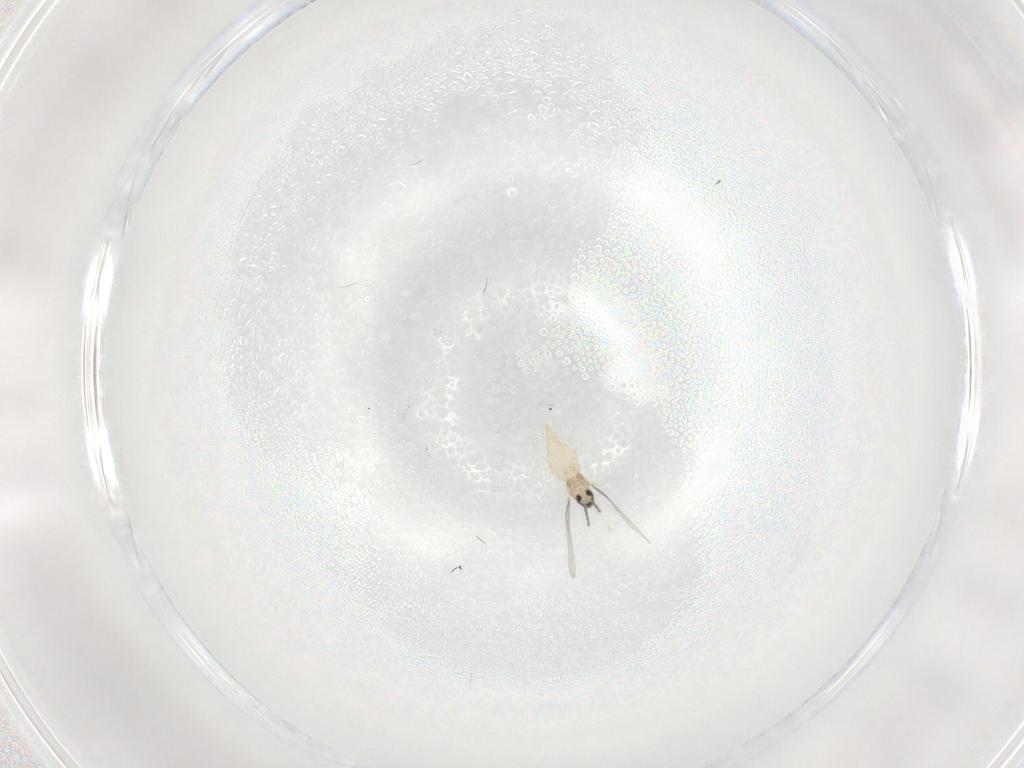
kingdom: Animalia
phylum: Arthropoda
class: Insecta
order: Diptera
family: Cecidomyiidae
